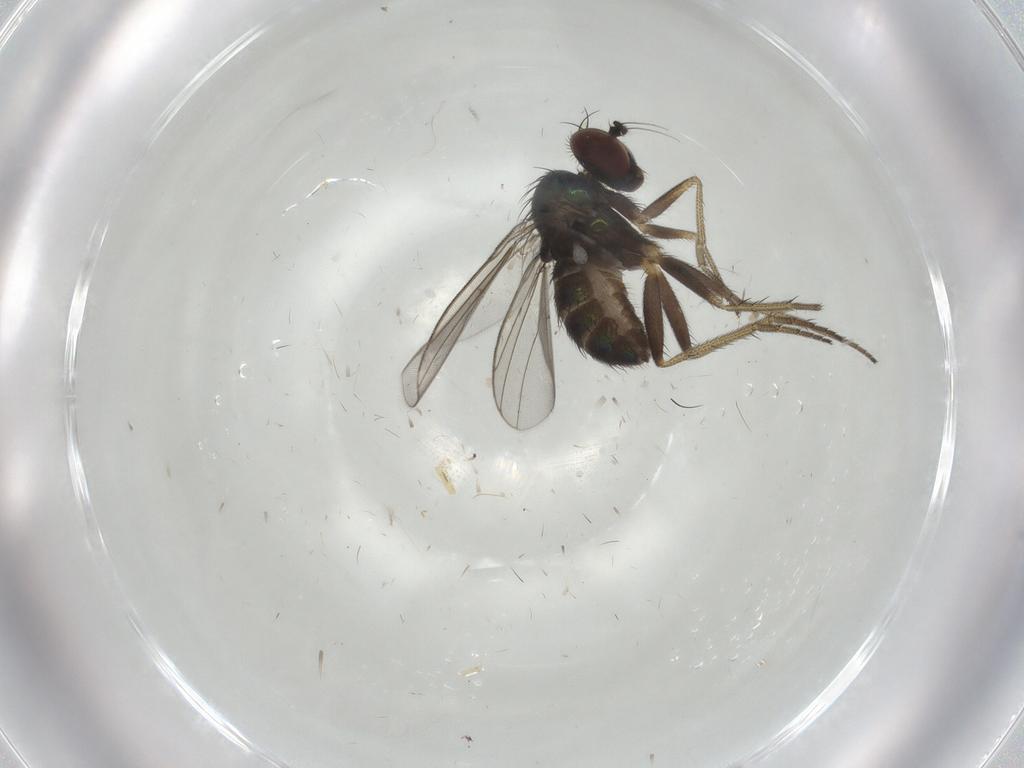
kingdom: Animalia
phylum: Arthropoda
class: Insecta
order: Diptera
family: Dolichopodidae
